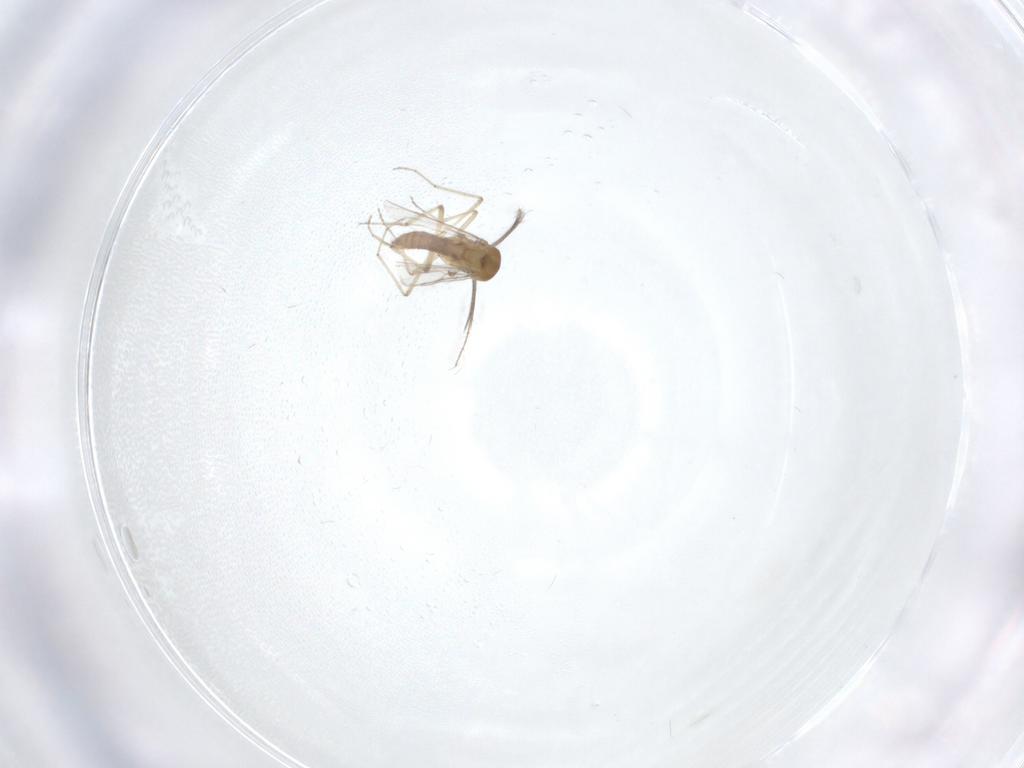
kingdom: Animalia
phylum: Arthropoda
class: Insecta
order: Diptera
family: Ceratopogonidae
